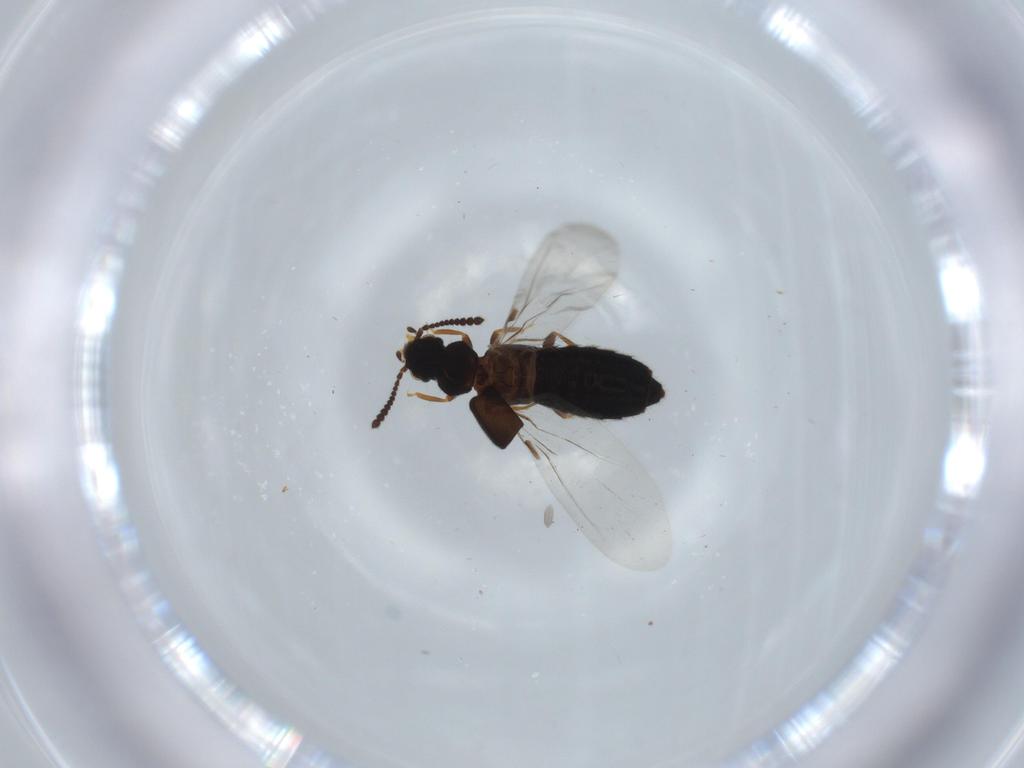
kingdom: Animalia
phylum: Arthropoda
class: Insecta
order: Coleoptera
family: Staphylinidae
